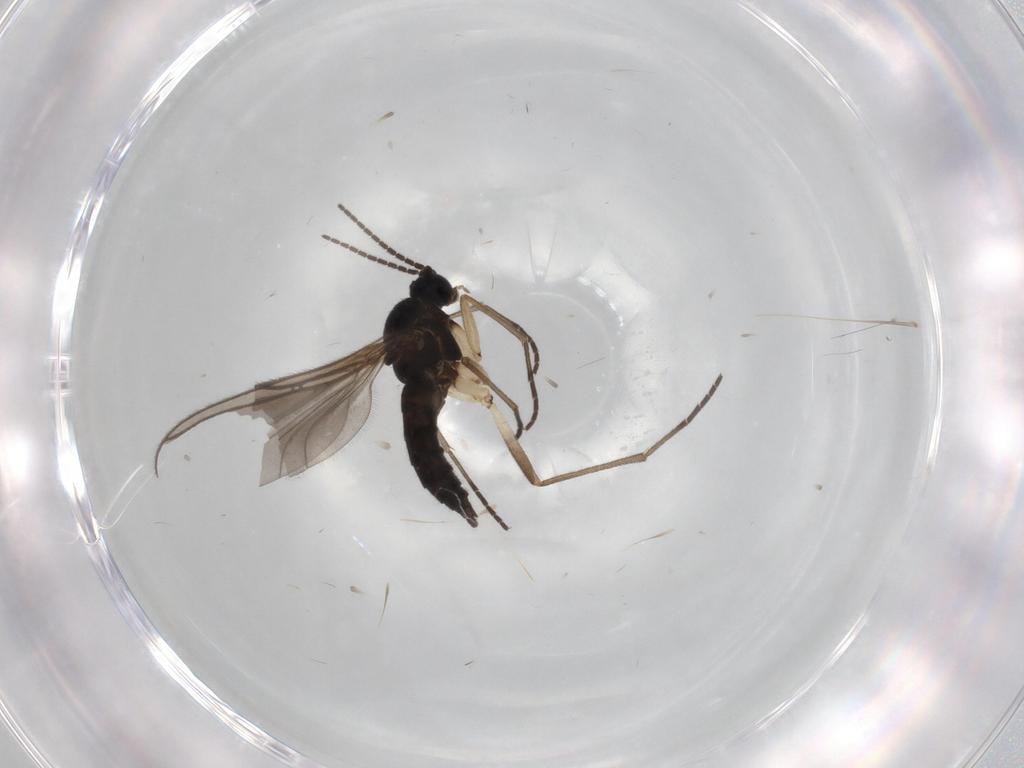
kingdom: Animalia
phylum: Arthropoda
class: Insecta
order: Diptera
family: Sciaridae
